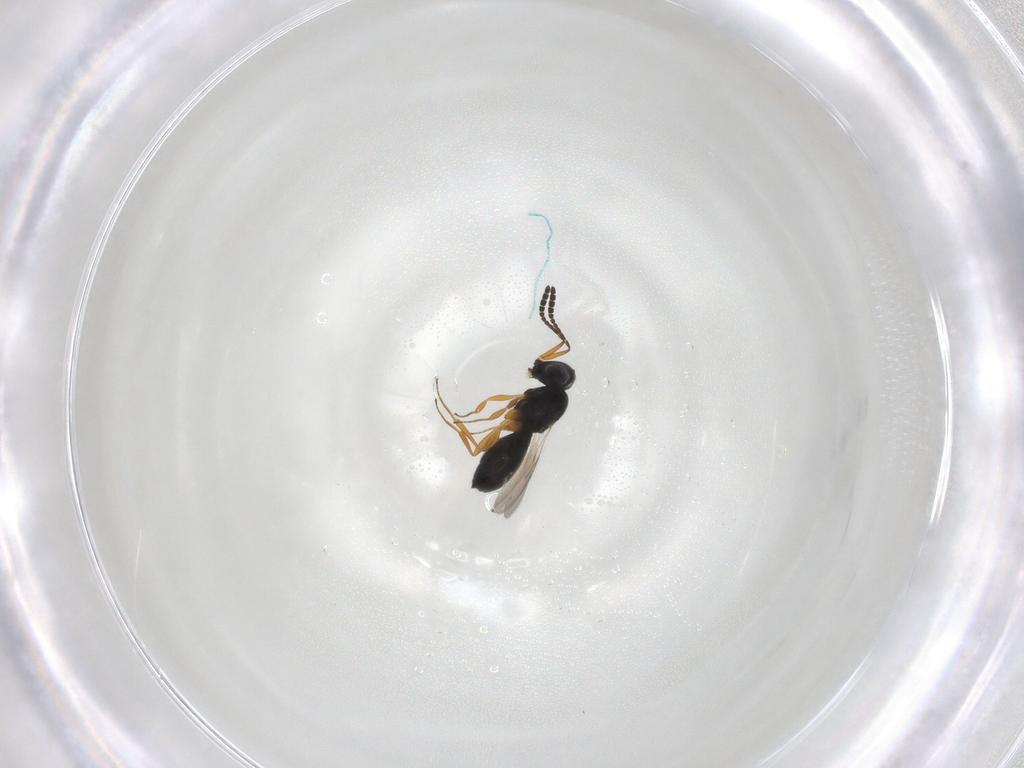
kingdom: Animalia
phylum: Arthropoda
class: Insecta
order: Hymenoptera
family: Scelionidae
